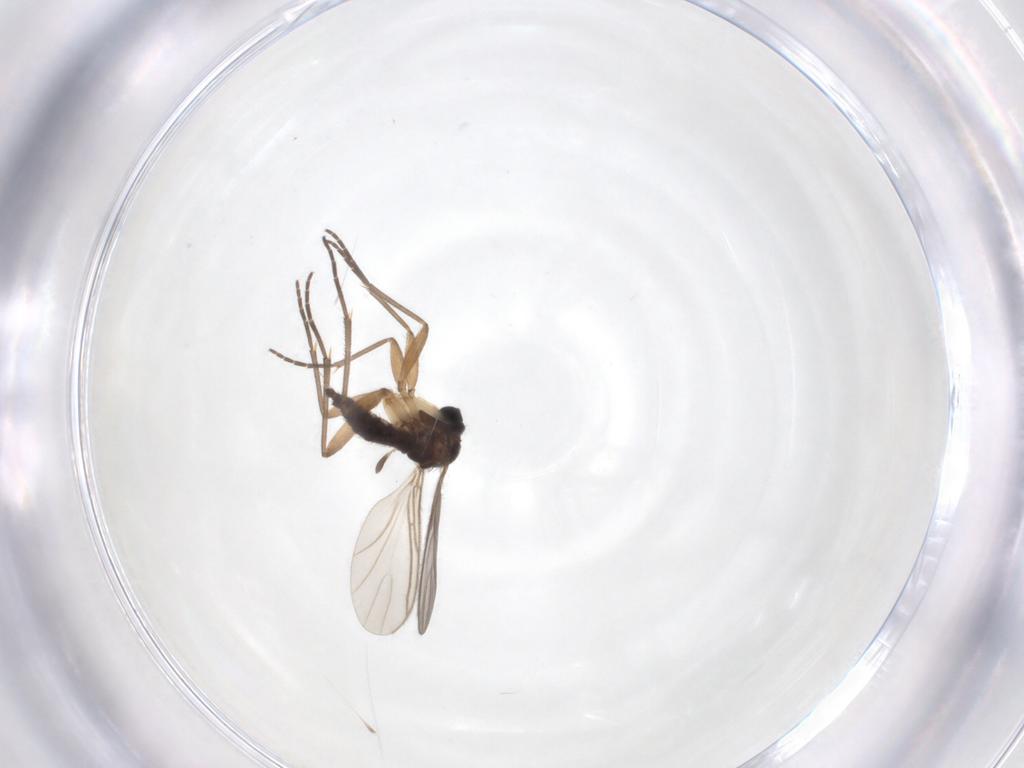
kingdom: Animalia
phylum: Arthropoda
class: Insecta
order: Diptera
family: Sciaridae
